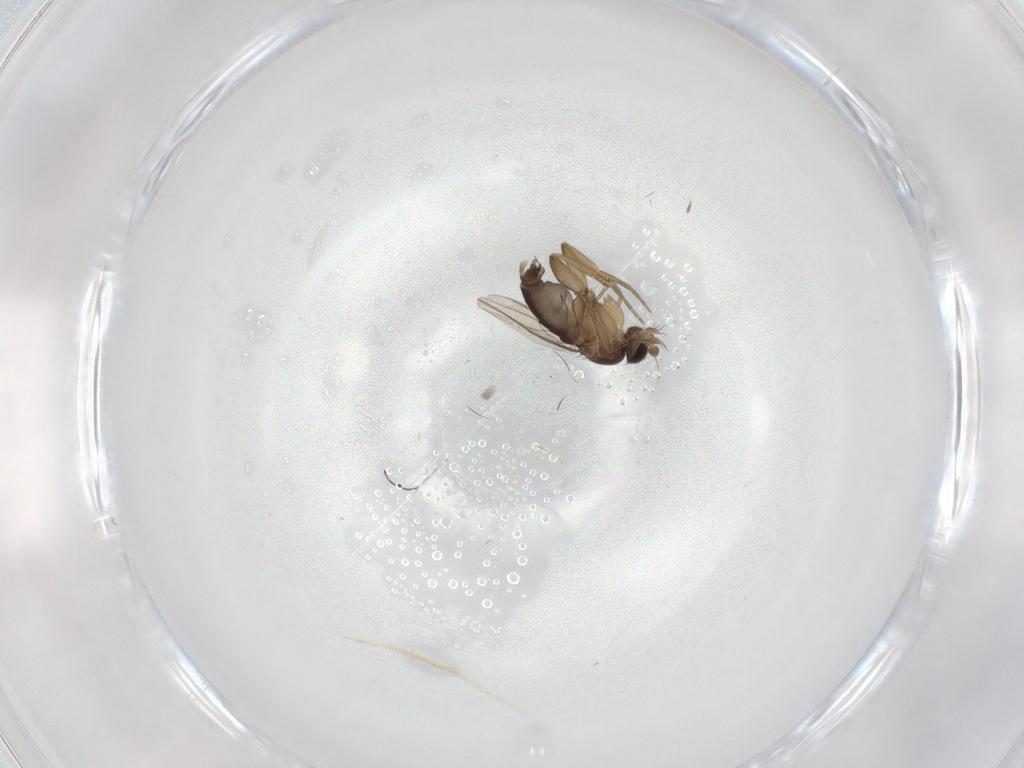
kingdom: Animalia
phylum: Arthropoda
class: Insecta
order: Diptera
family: Phoridae
